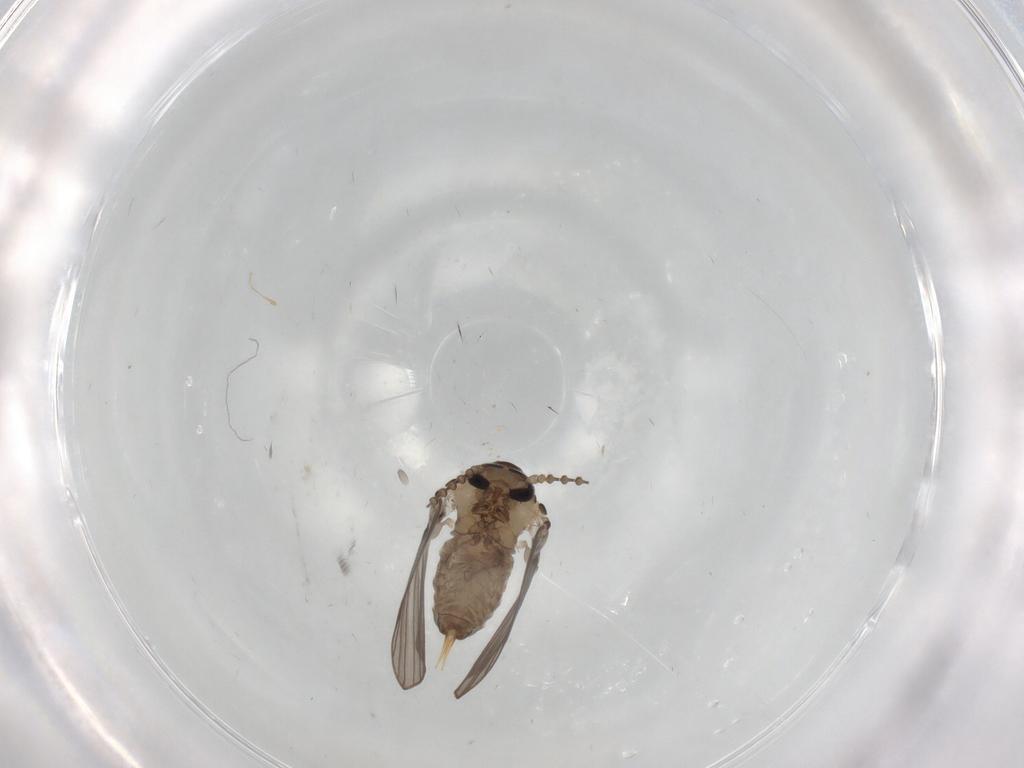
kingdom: Animalia
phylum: Arthropoda
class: Insecta
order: Diptera
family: Psychodidae
